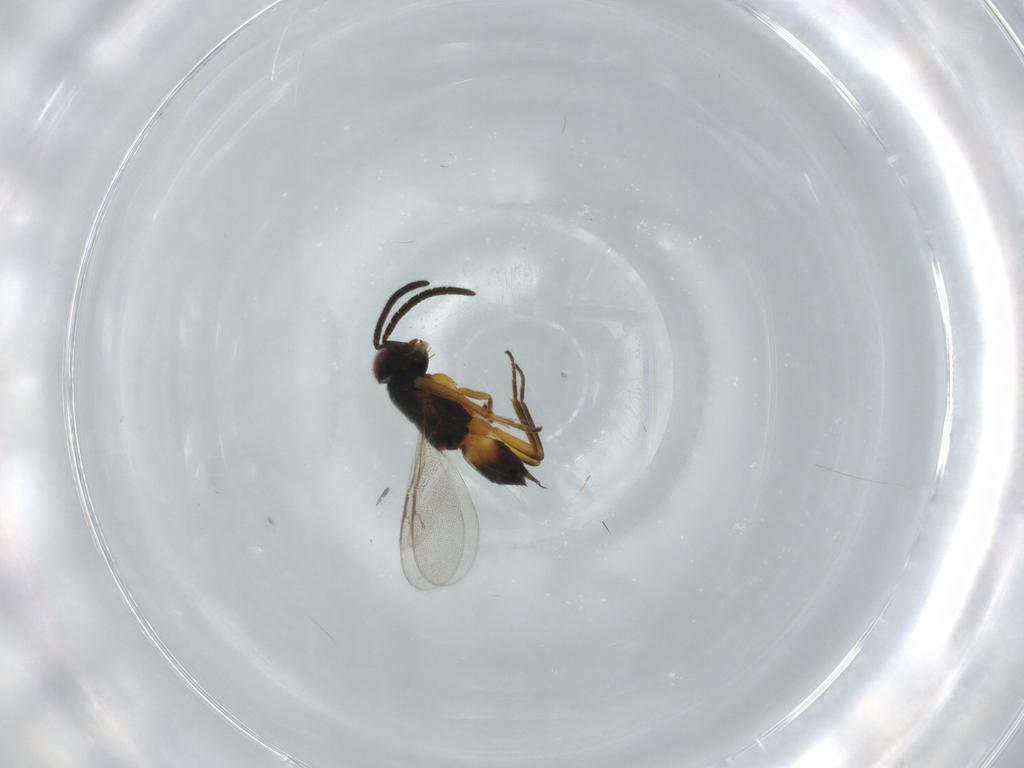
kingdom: Animalia
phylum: Arthropoda
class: Insecta
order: Hymenoptera
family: Encyrtidae
